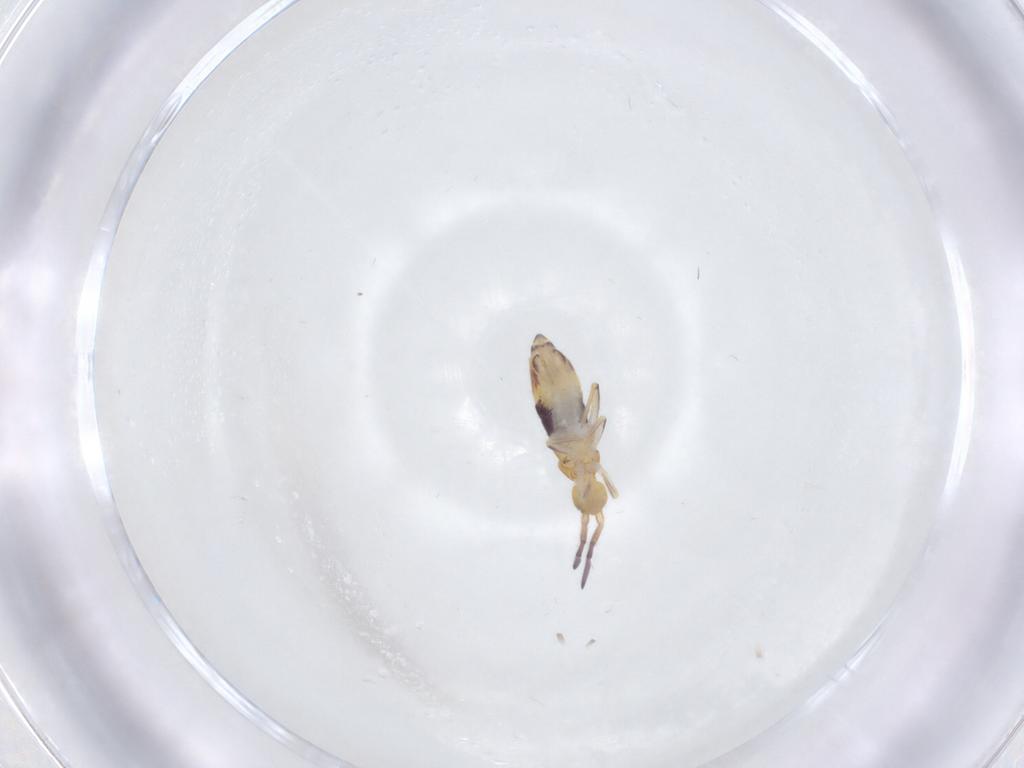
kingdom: Animalia
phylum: Arthropoda
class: Collembola
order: Entomobryomorpha
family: Entomobryidae
